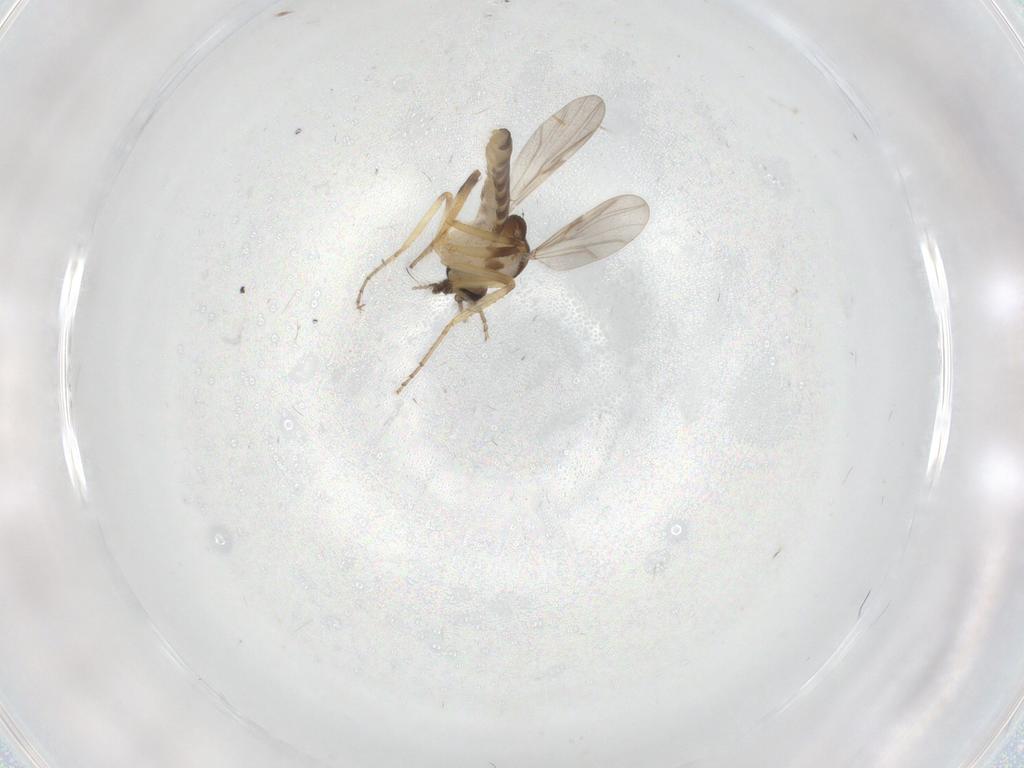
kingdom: Animalia
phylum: Arthropoda
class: Insecta
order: Diptera
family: Ceratopogonidae
